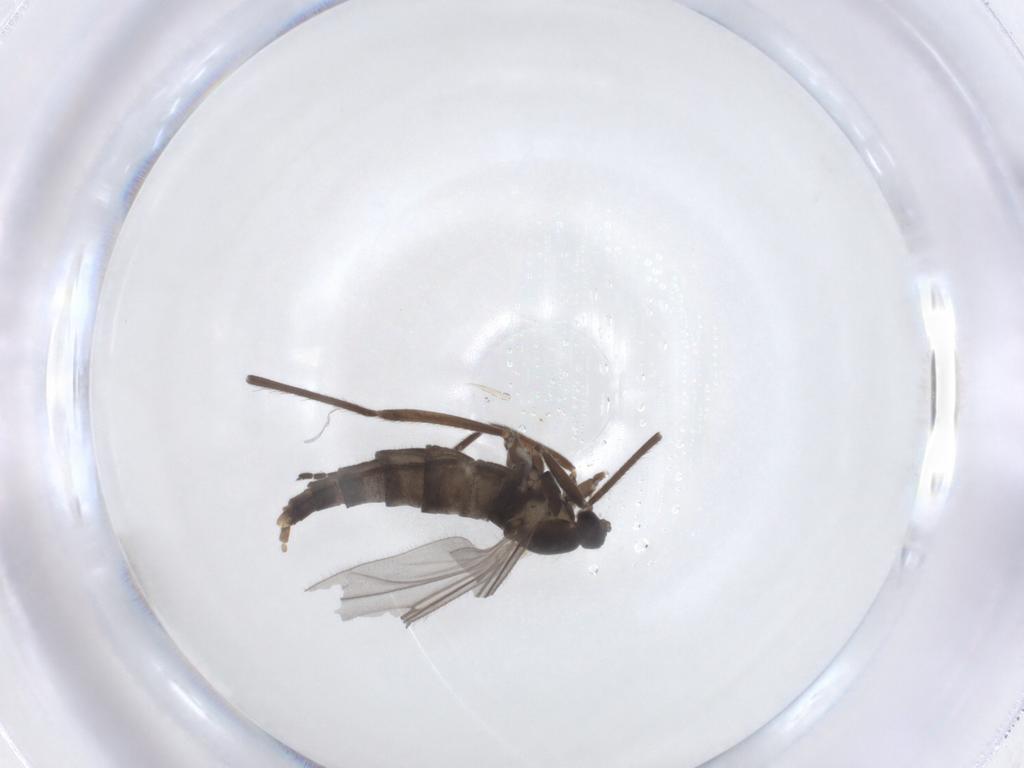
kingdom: Animalia
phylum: Arthropoda
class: Insecta
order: Diptera
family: Cecidomyiidae
